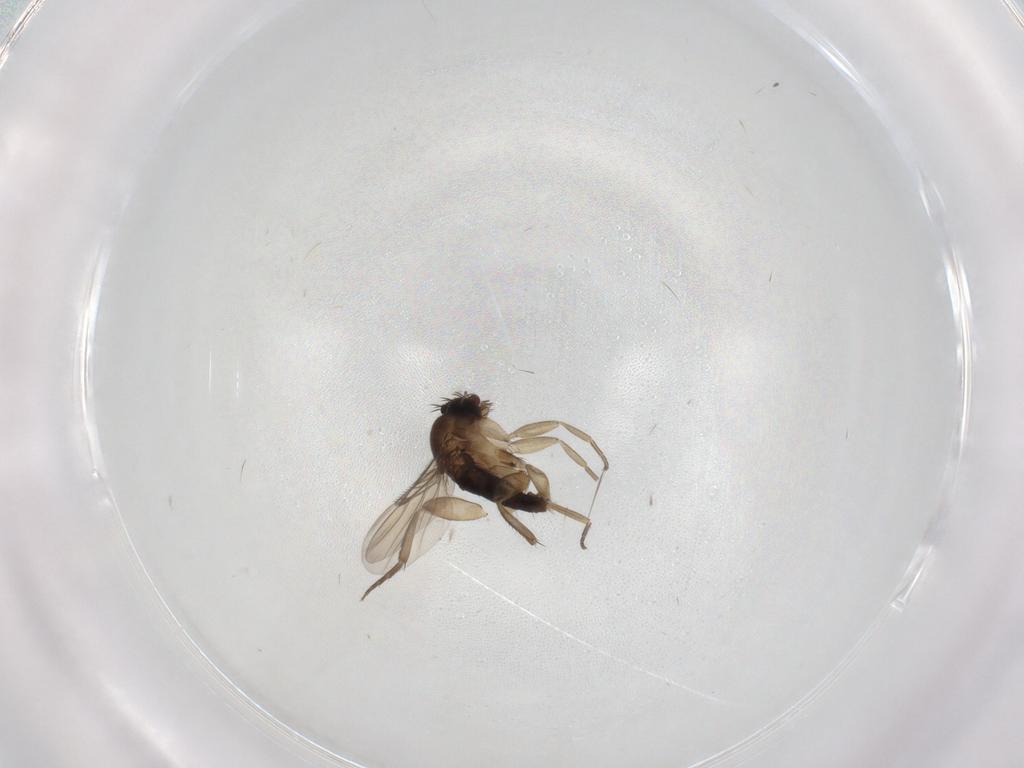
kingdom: Animalia
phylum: Arthropoda
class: Insecta
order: Diptera
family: Phoridae
